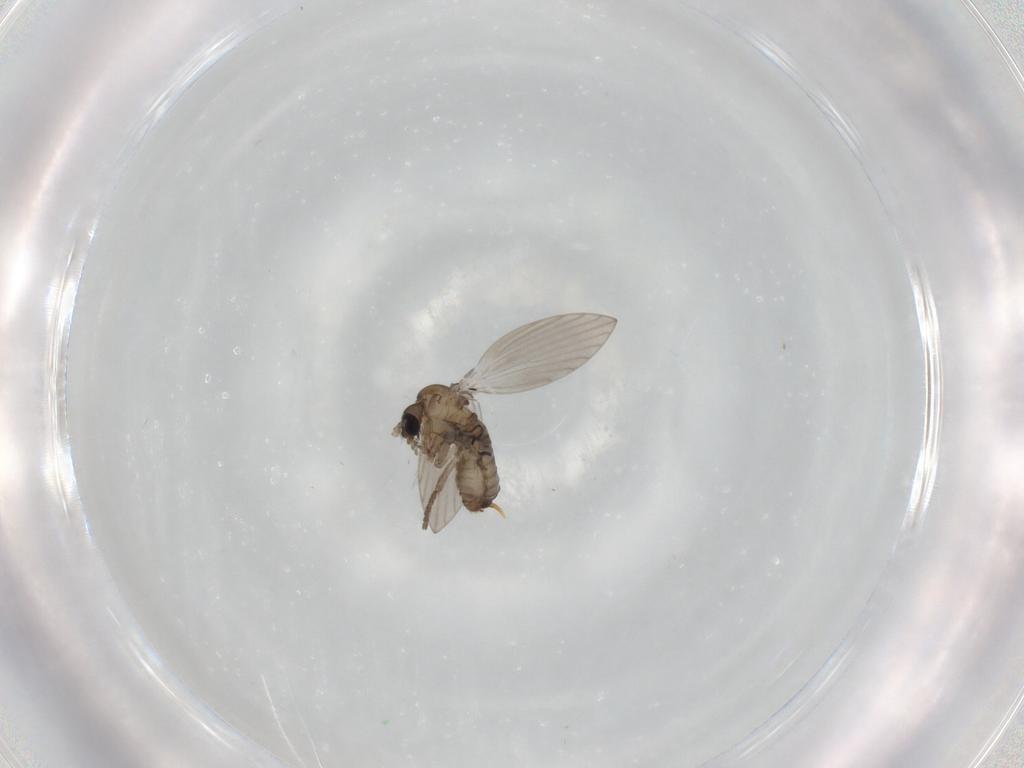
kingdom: Animalia
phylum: Arthropoda
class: Insecta
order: Diptera
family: Psychodidae
